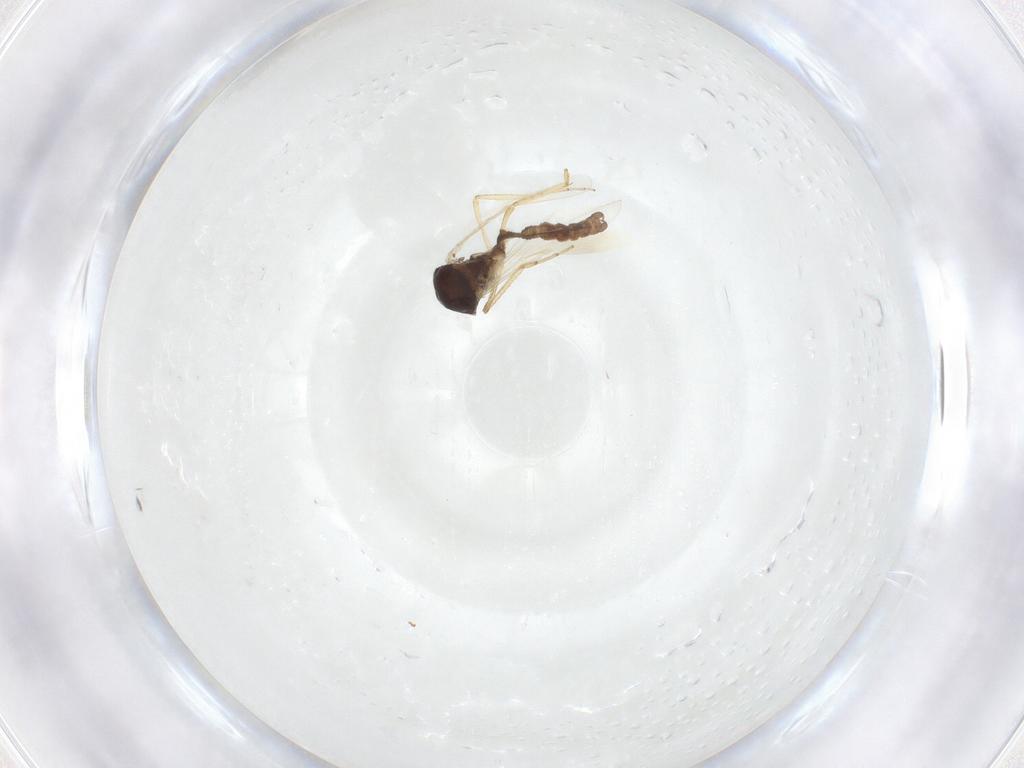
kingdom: Animalia
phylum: Arthropoda
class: Insecta
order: Diptera
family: Ceratopogonidae
